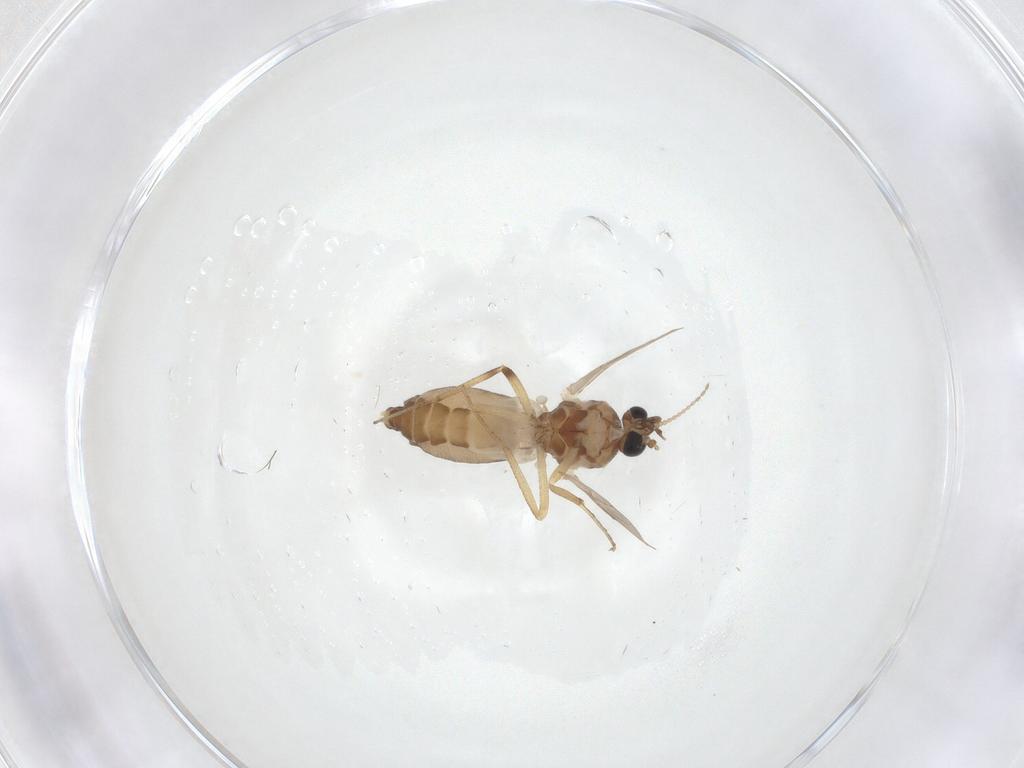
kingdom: Animalia
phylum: Arthropoda
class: Insecta
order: Diptera
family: Ceratopogonidae
